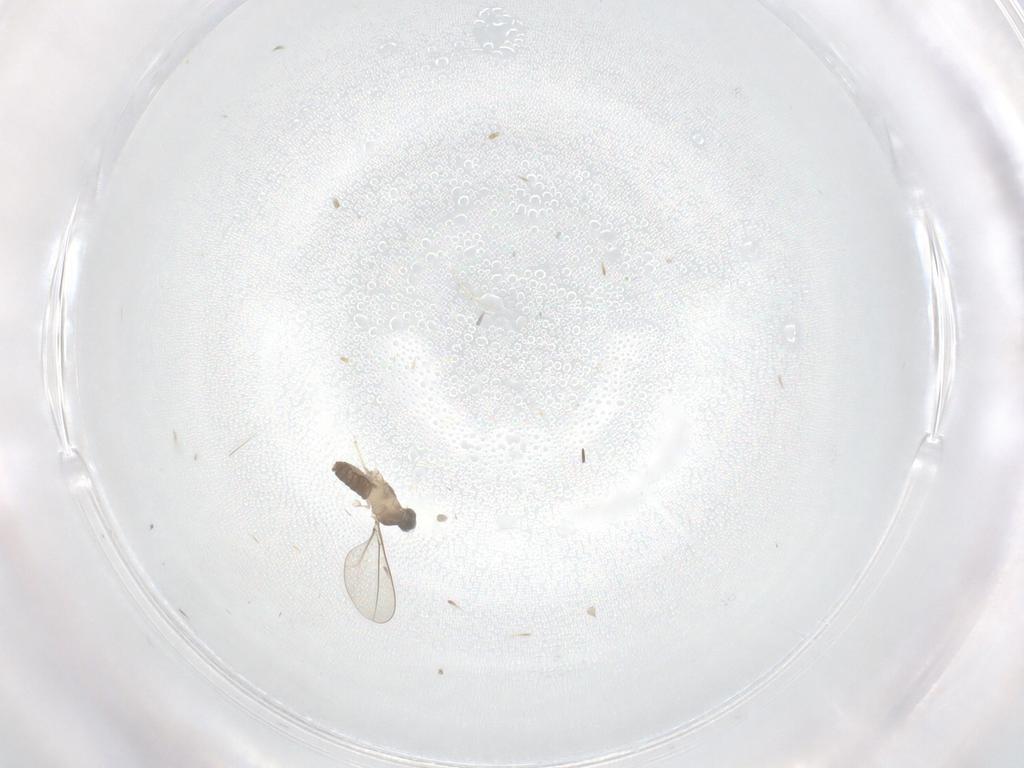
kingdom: Animalia
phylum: Arthropoda
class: Insecta
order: Diptera
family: Cecidomyiidae
